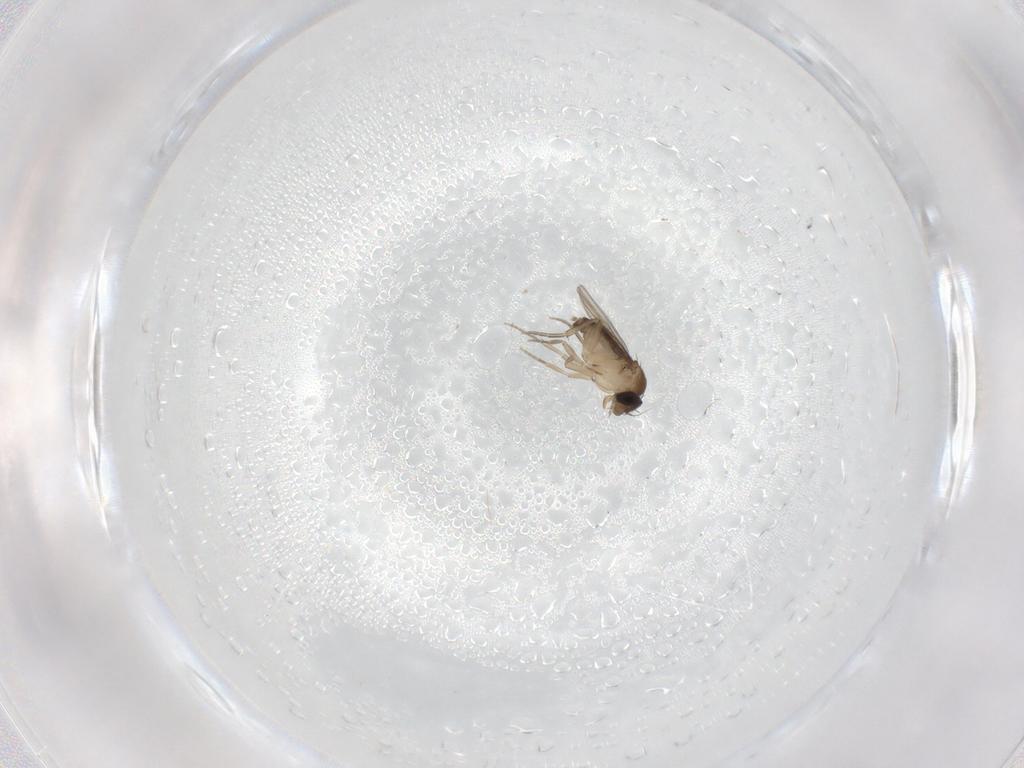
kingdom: Animalia
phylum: Arthropoda
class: Insecta
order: Diptera
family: Phoridae
